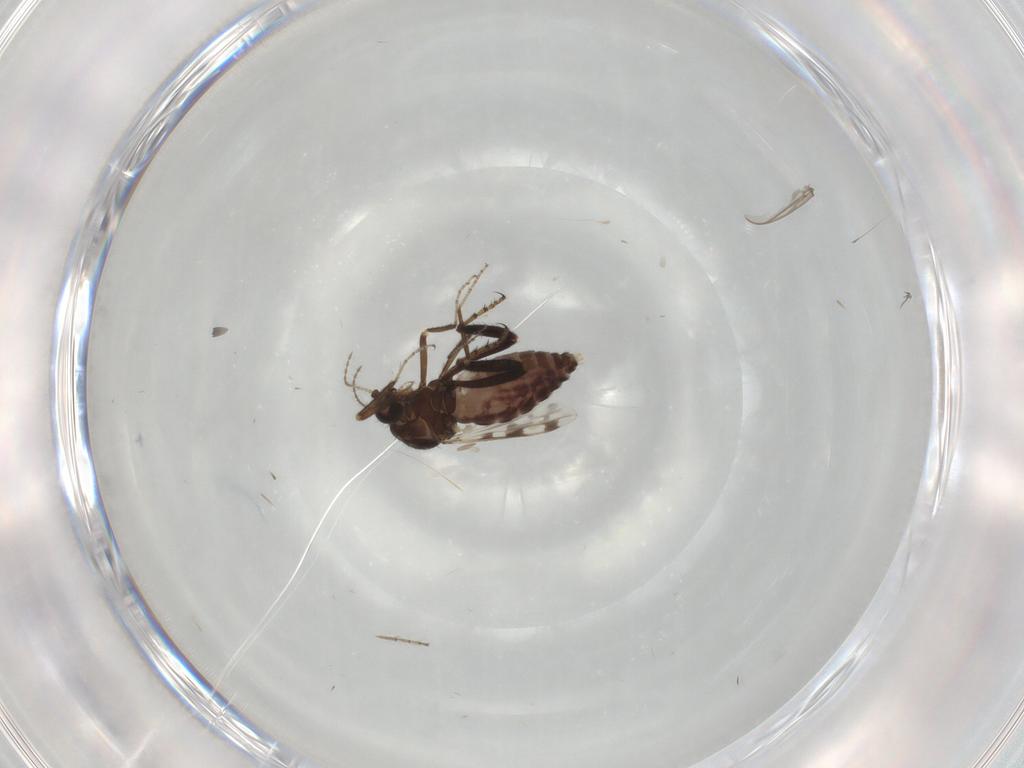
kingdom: Animalia
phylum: Arthropoda
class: Insecta
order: Diptera
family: Ceratopogonidae
